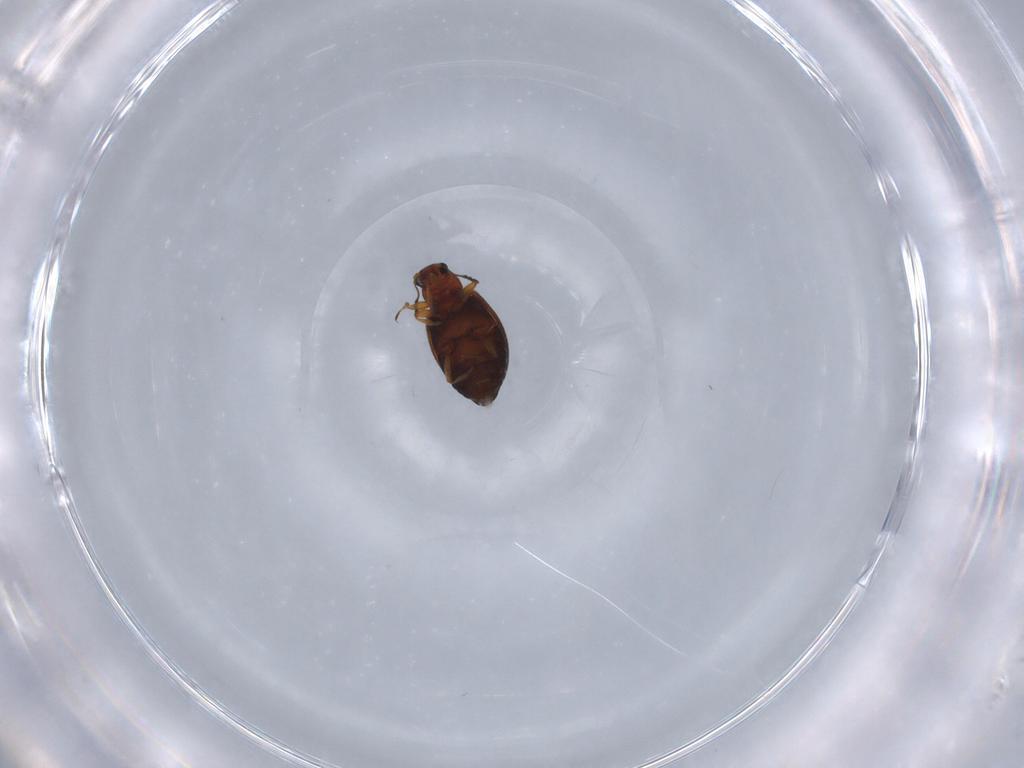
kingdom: Animalia
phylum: Arthropoda
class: Insecta
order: Coleoptera
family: Latridiidae
